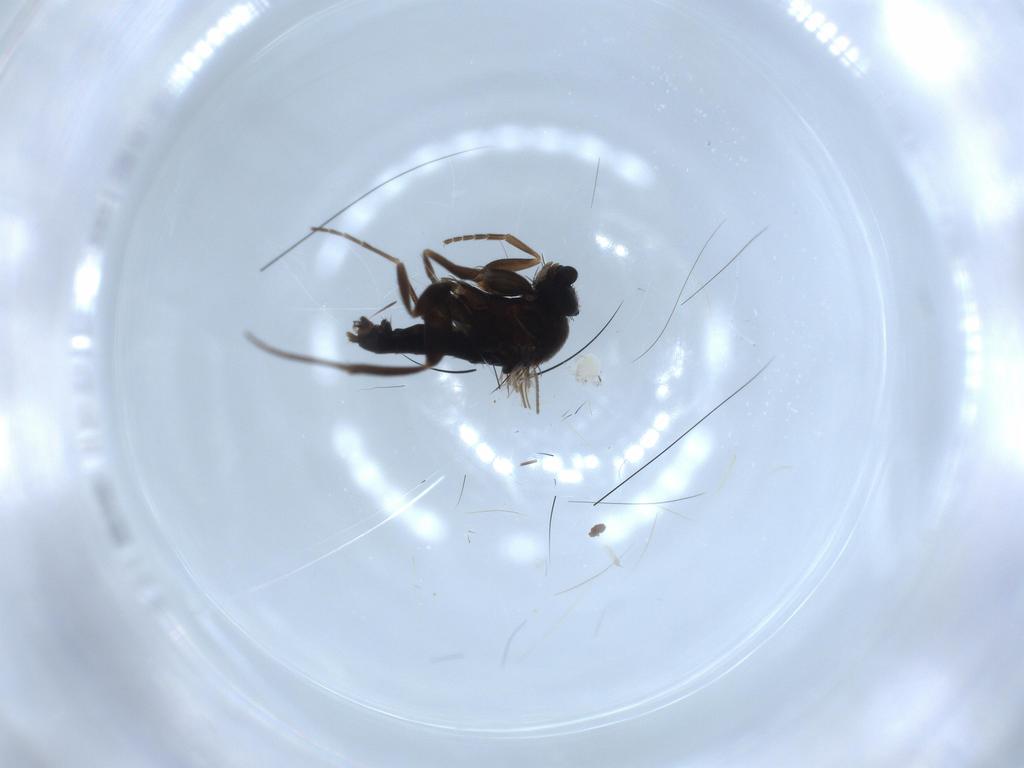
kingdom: Animalia
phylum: Arthropoda
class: Insecta
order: Diptera
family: Phoridae
